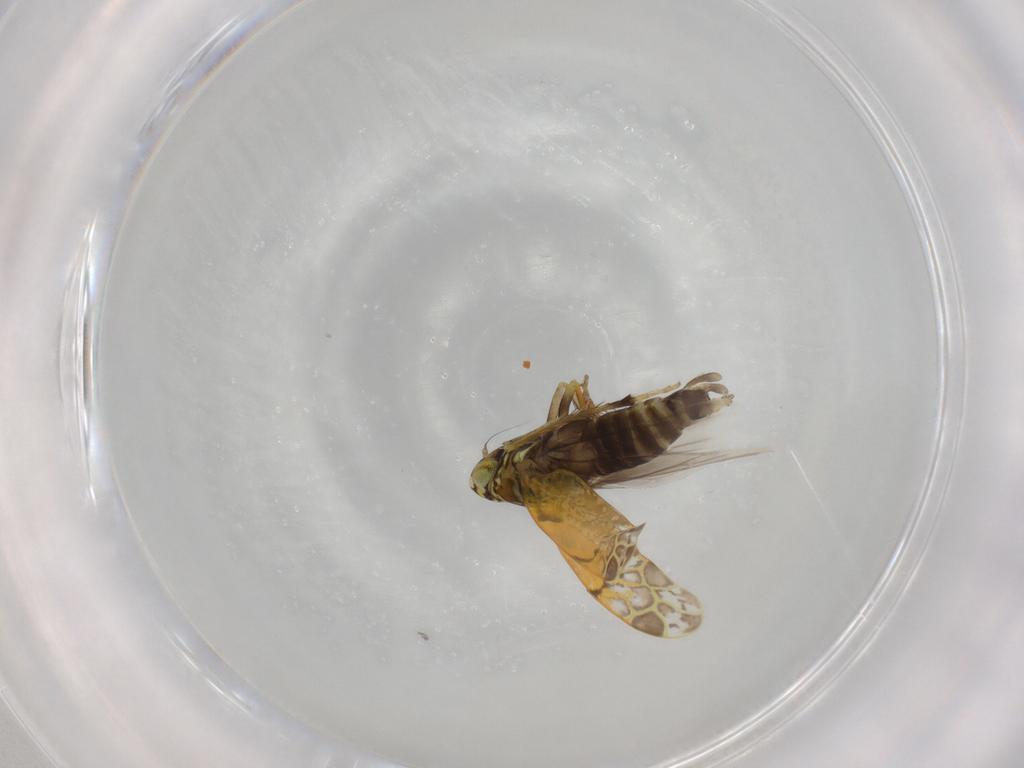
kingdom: Animalia
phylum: Arthropoda
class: Insecta
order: Hemiptera
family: Cicadellidae
